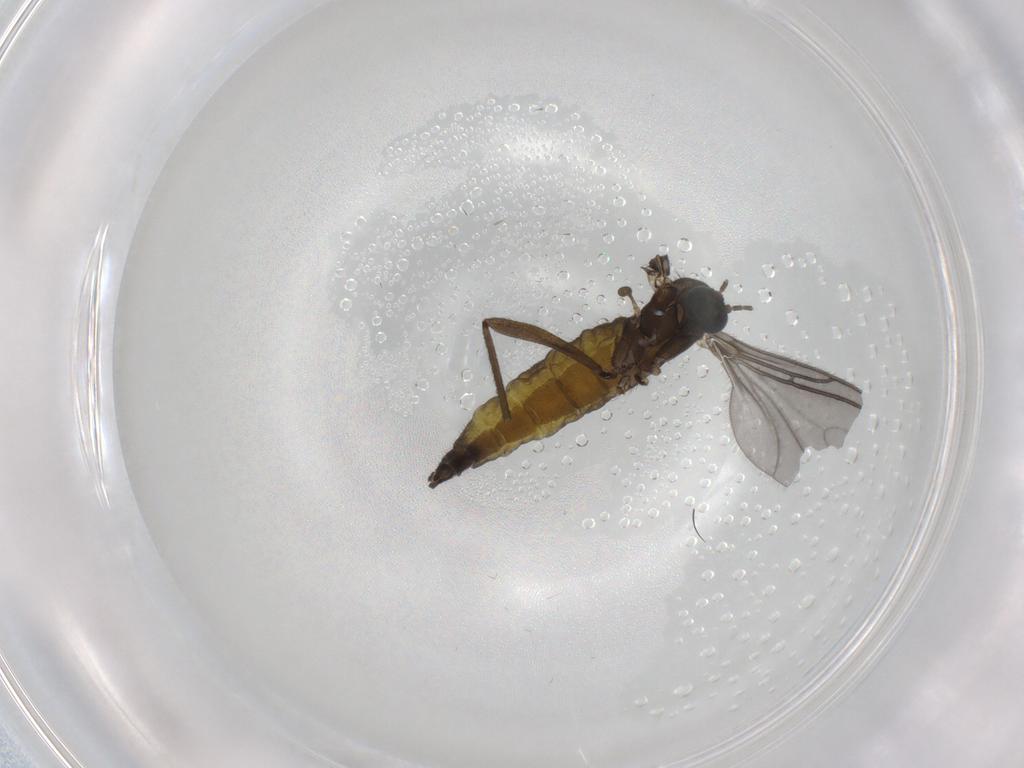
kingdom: Animalia
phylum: Arthropoda
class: Insecta
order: Diptera
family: Sciaridae
